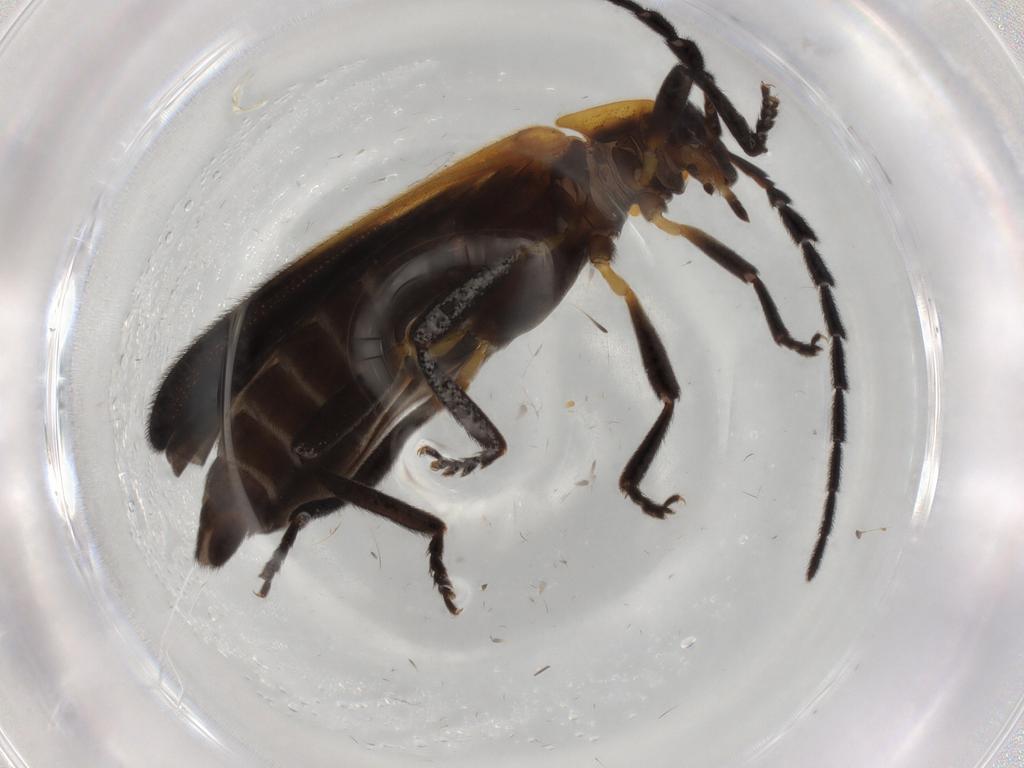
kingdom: Animalia
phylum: Arthropoda
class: Insecta
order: Coleoptera
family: Lycidae
